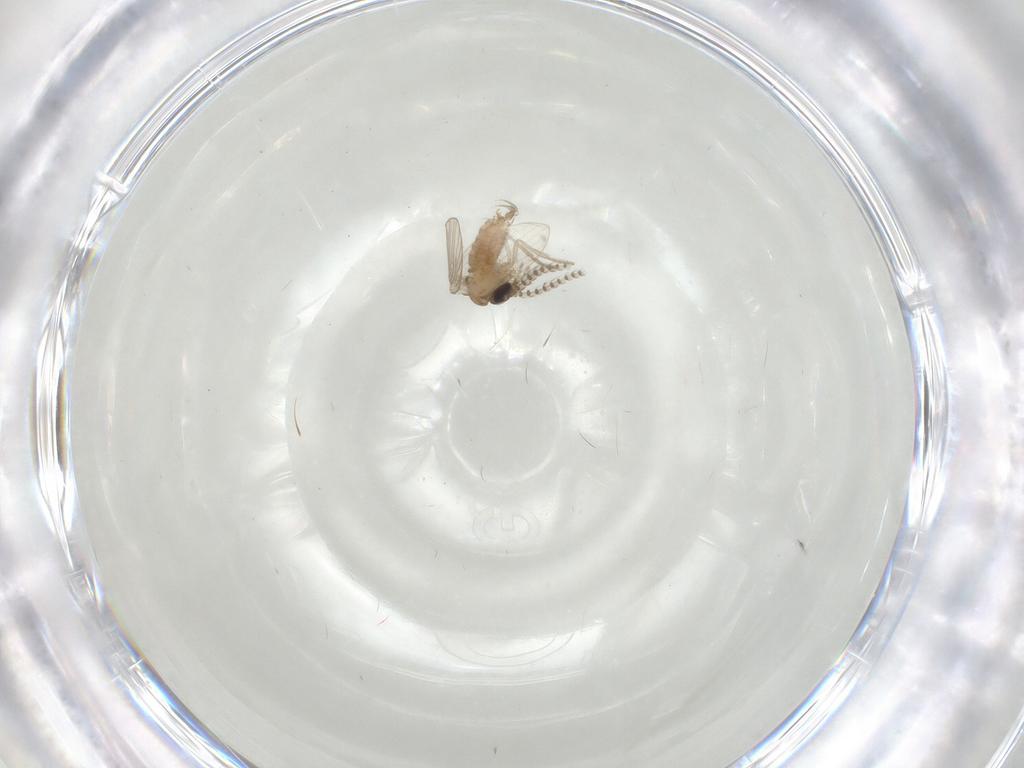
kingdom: Animalia
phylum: Arthropoda
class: Insecta
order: Diptera
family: Psychodidae
